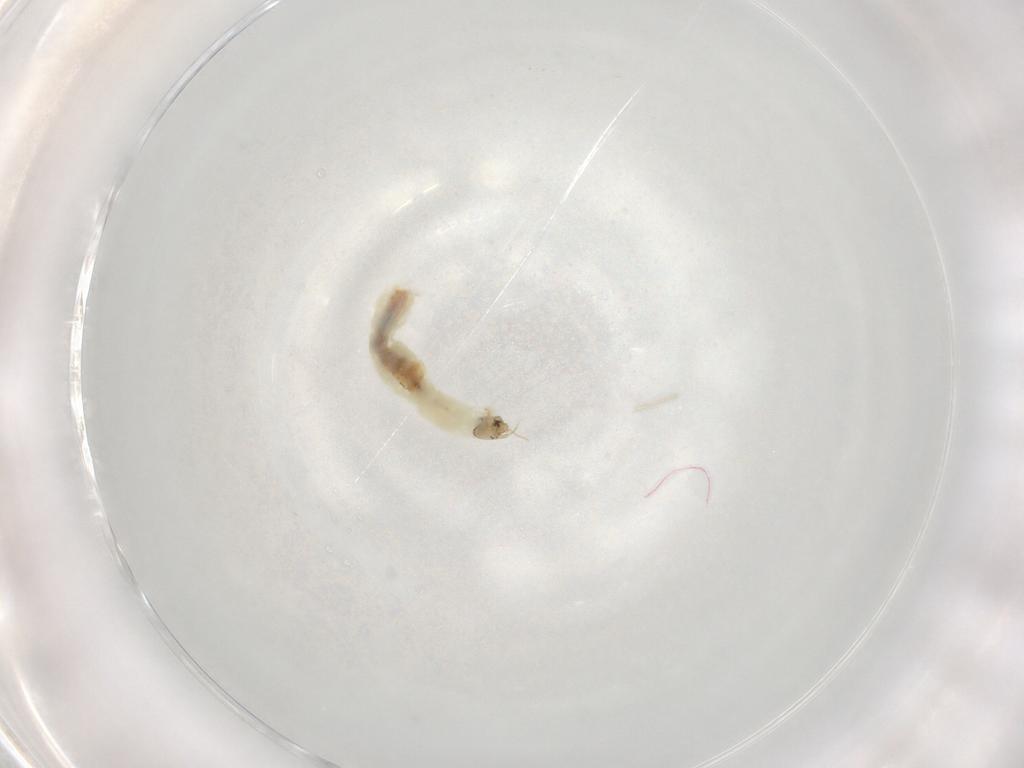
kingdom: Animalia
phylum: Arthropoda
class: Insecta
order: Diptera
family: Chironomidae
